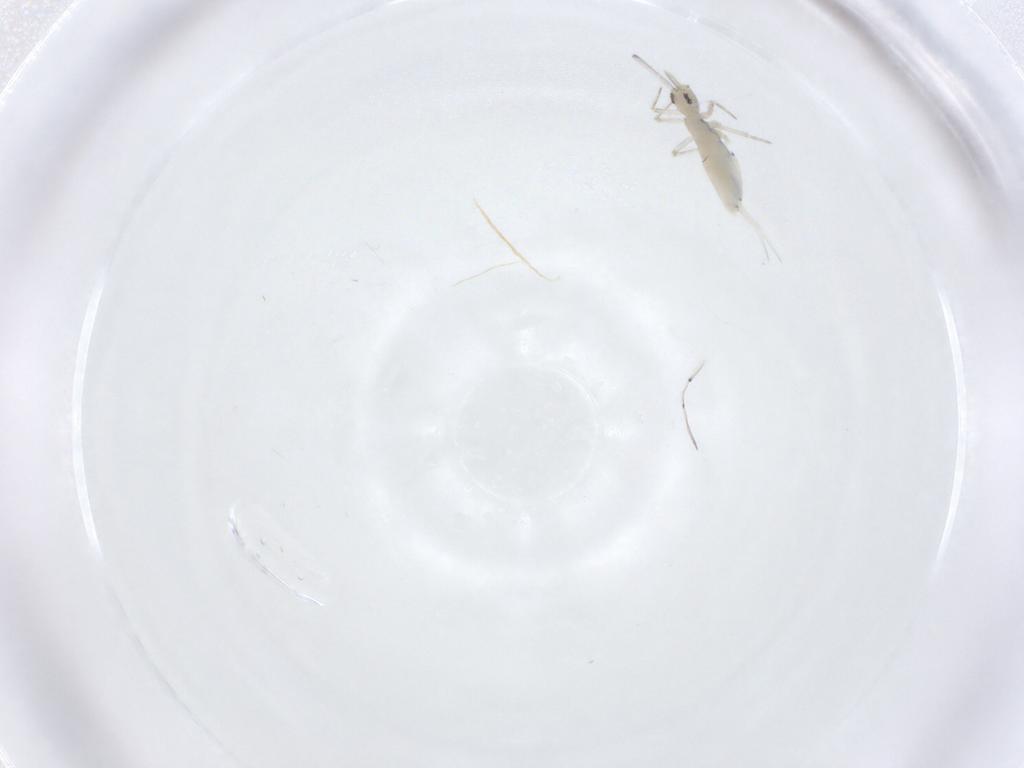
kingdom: Animalia
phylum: Arthropoda
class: Collembola
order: Entomobryomorpha
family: Entomobryidae
